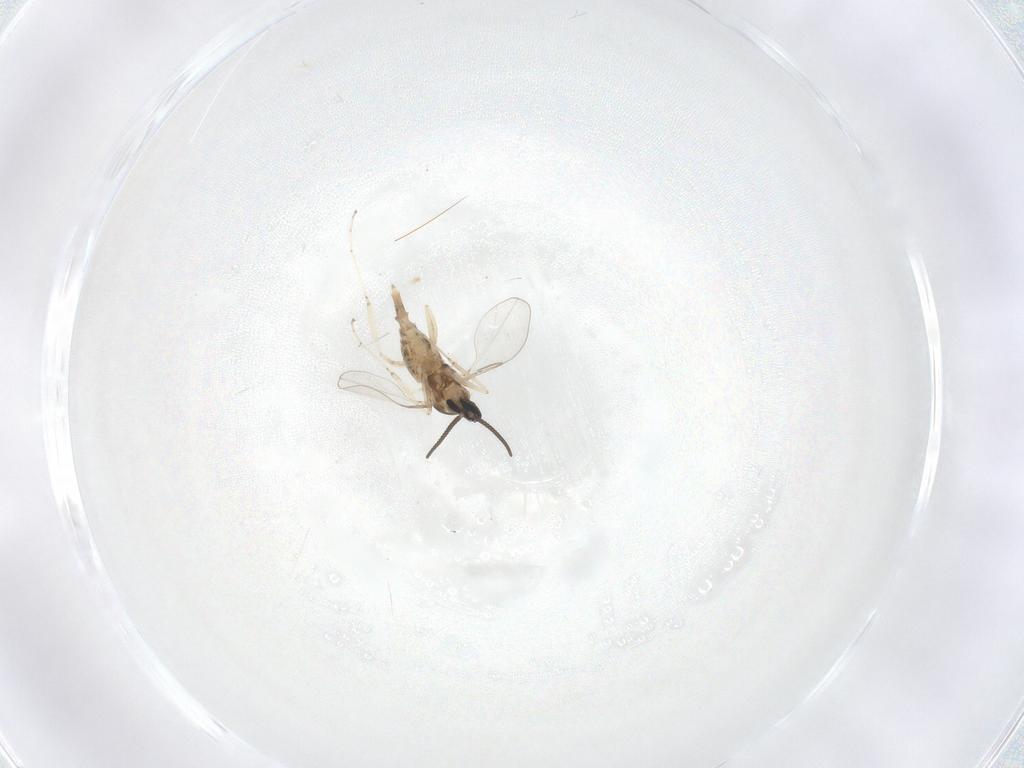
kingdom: Animalia
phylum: Arthropoda
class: Insecta
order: Diptera
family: Cecidomyiidae
